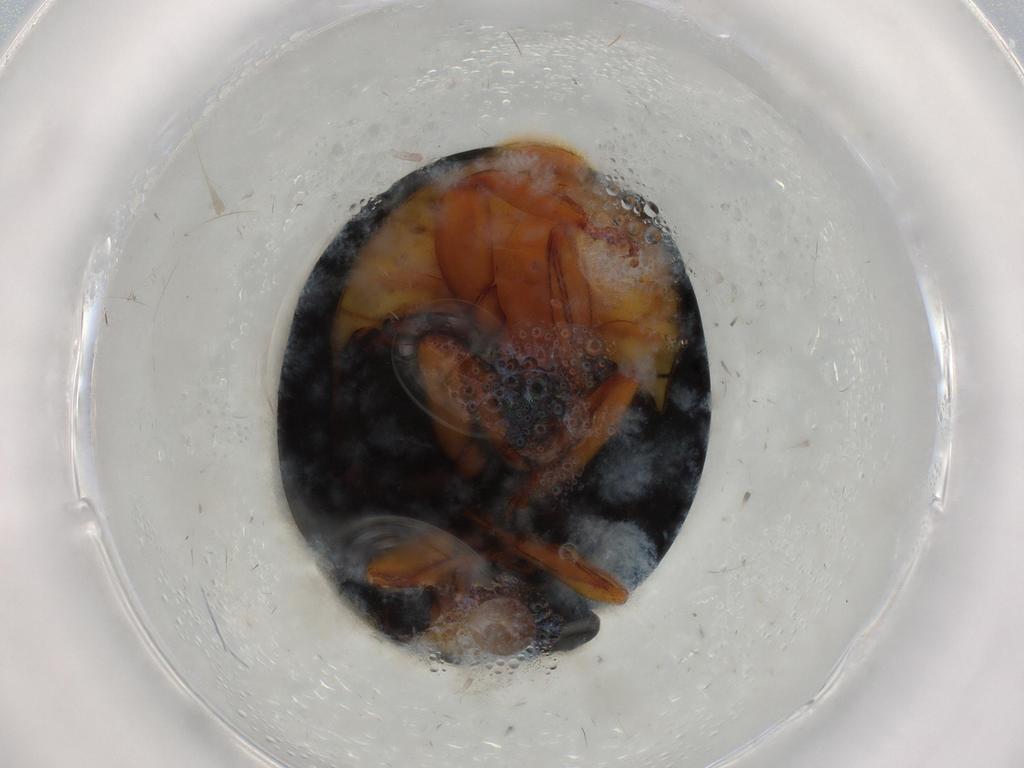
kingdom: Animalia
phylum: Arthropoda
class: Insecta
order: Coleoptera
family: Coccinellidae
